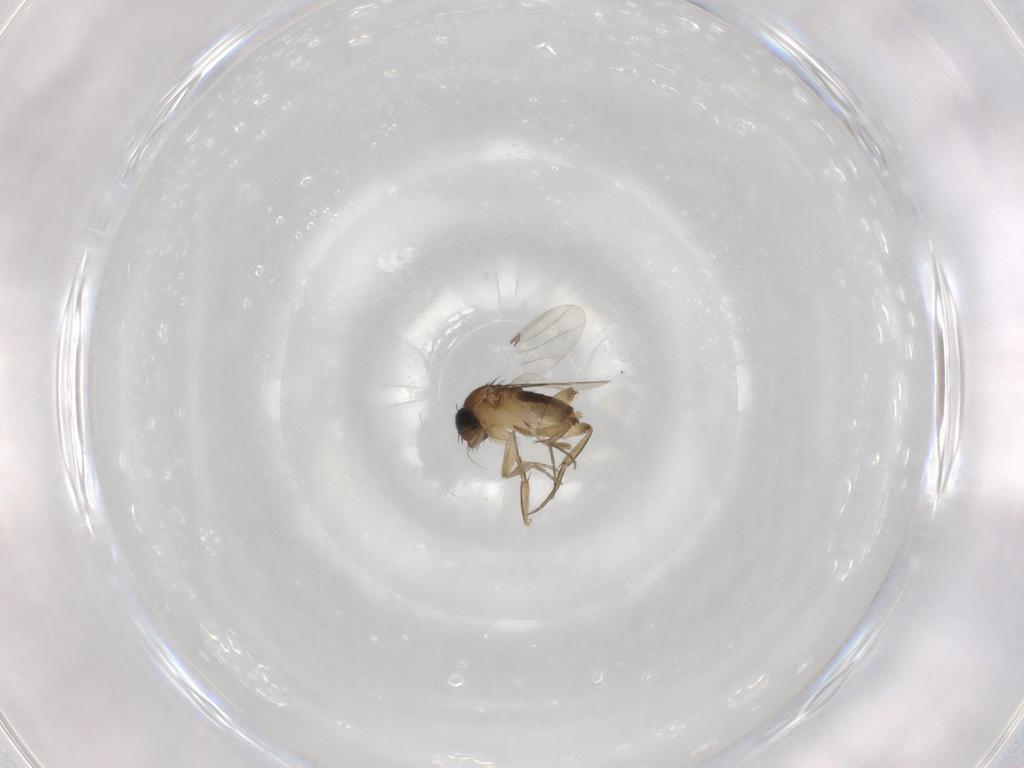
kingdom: Animalia
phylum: Arthropoda
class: Insecta
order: Diptera
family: Phoridae
